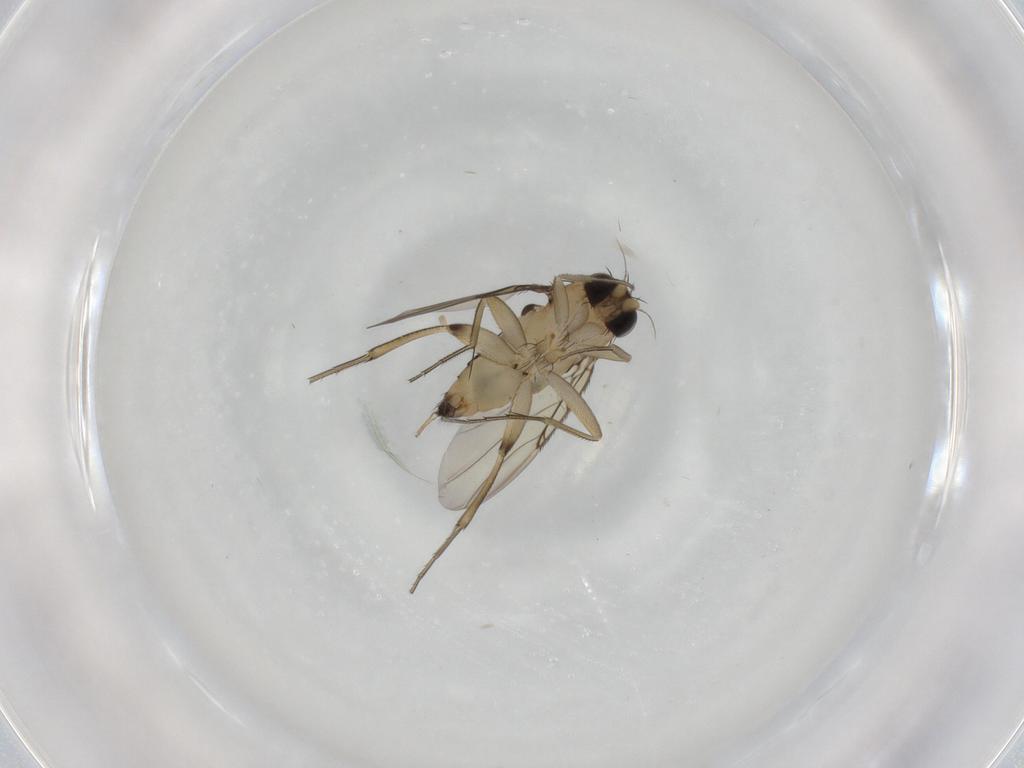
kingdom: Animalia
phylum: Arthropoda
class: Insecta
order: Diptera
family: Phoridae
